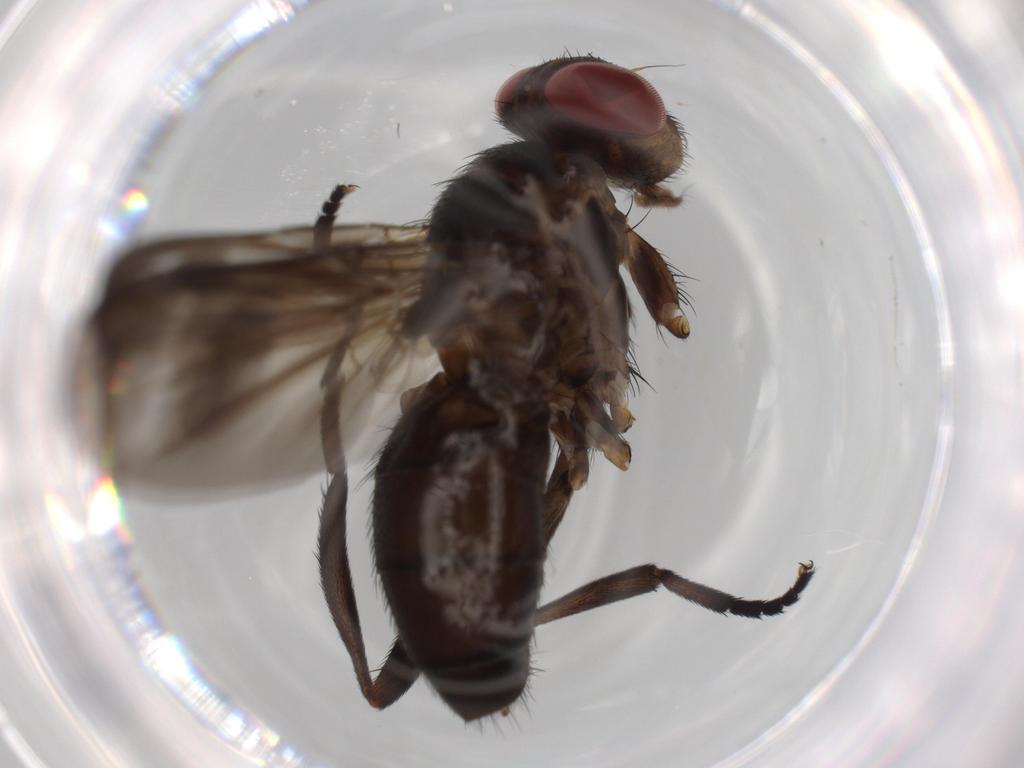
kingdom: Animalia
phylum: Arthropoda
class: Insecta
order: Diptera
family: Calliphoridae
